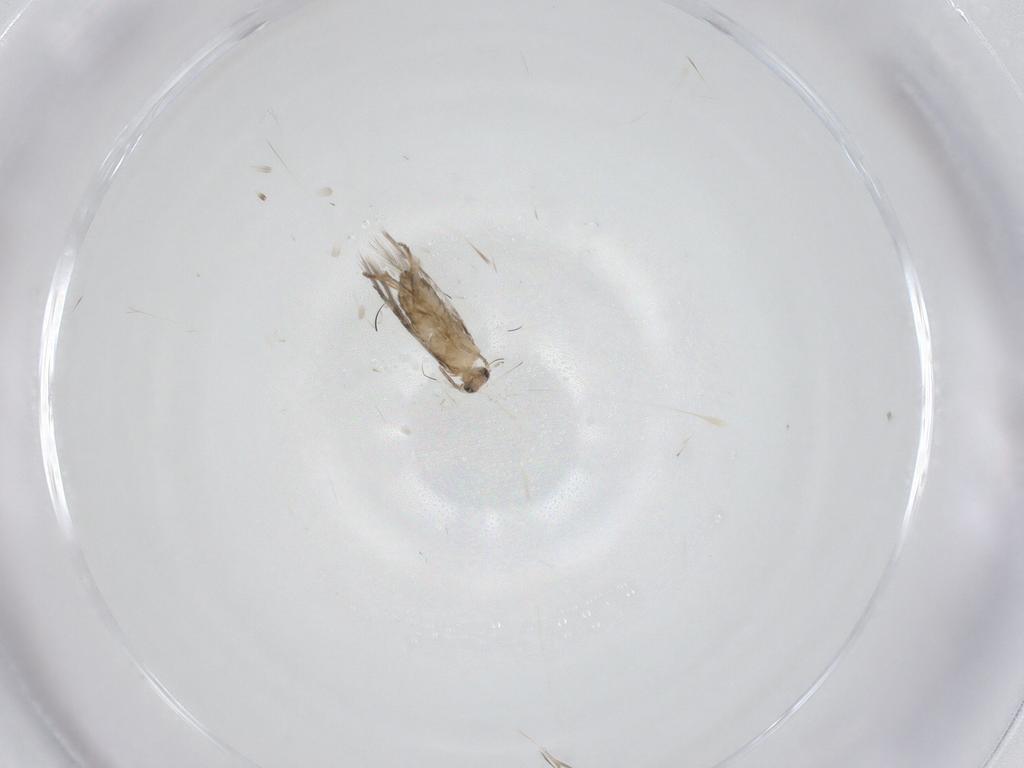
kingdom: Animalia
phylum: Arthropoda
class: Insecta
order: Lepidoptera
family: Nepticulidae
